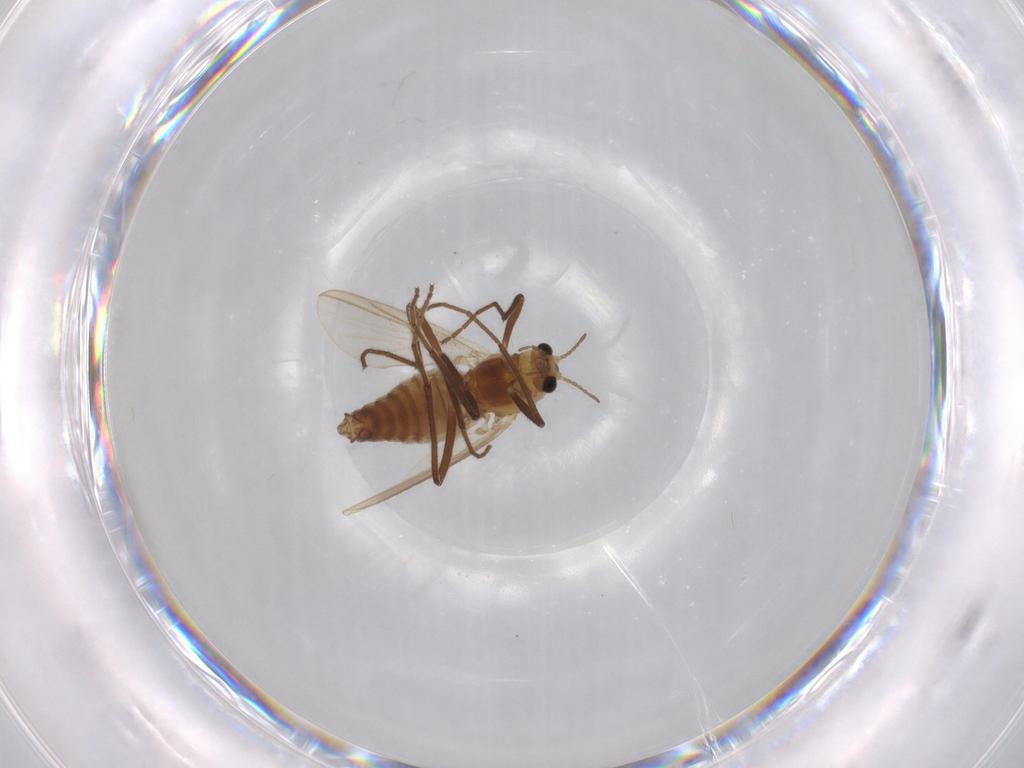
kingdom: Animalia
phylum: Arthropoda
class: Insecta
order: Diptera
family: Chironomidae
